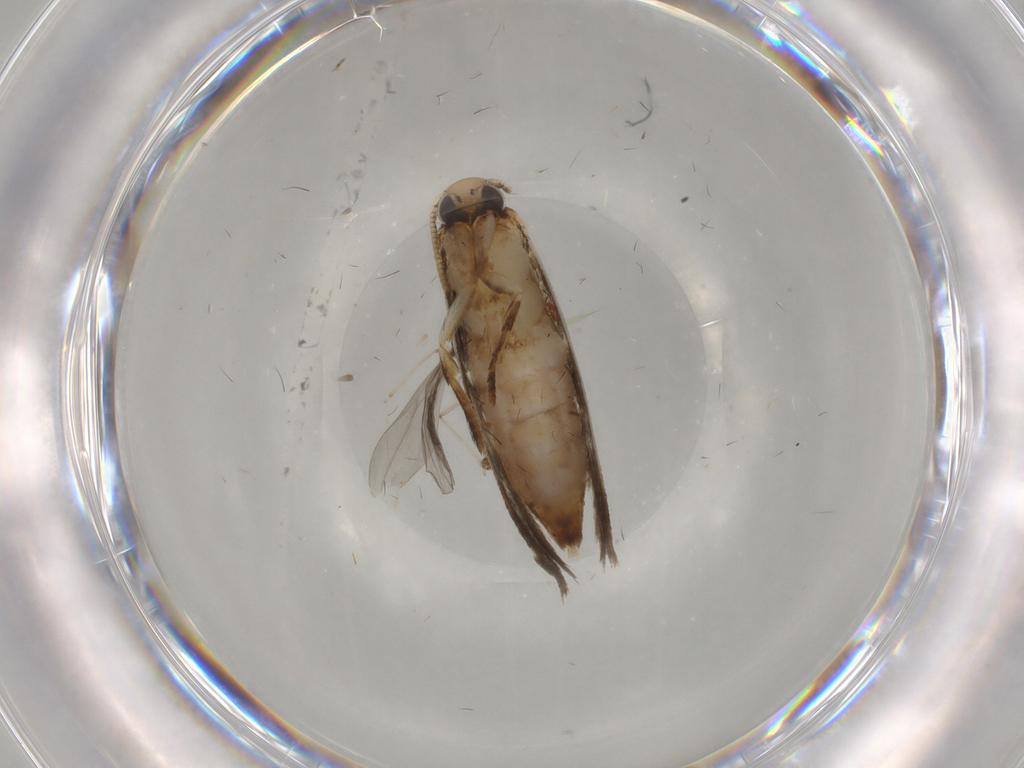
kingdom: Animalia
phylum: Arthropoda
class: Insecta
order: Lepidoptera
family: Tineidae
